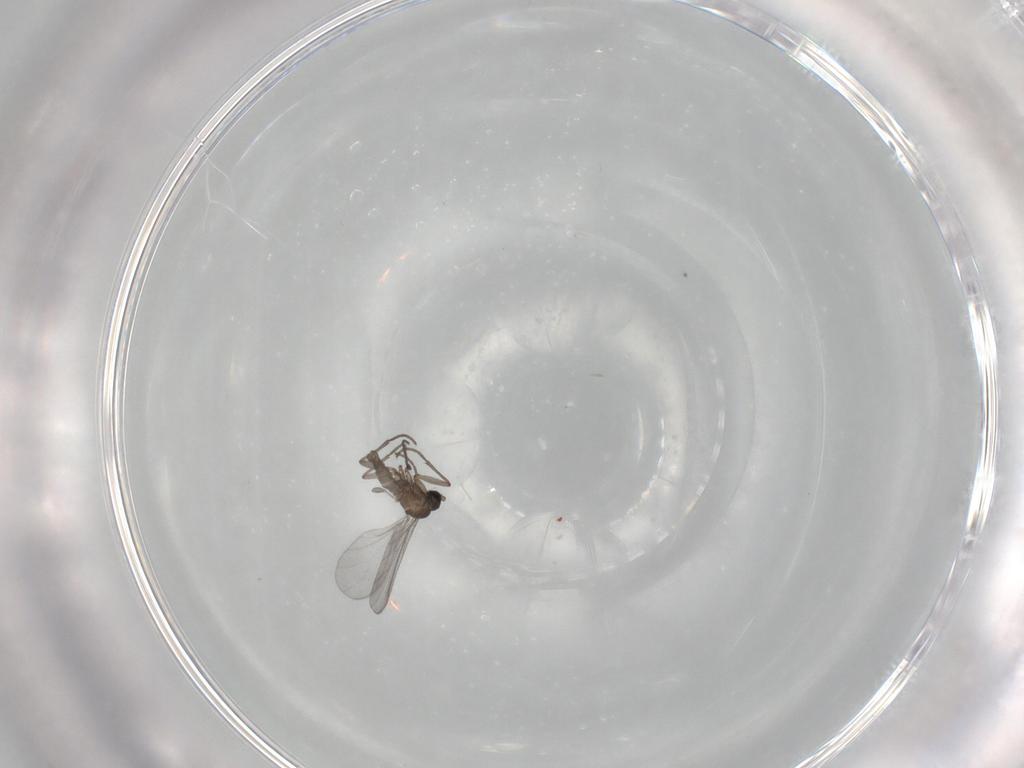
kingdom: Animalia
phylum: Arthropoda
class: Insecta
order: Diptera
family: Sciaridae
